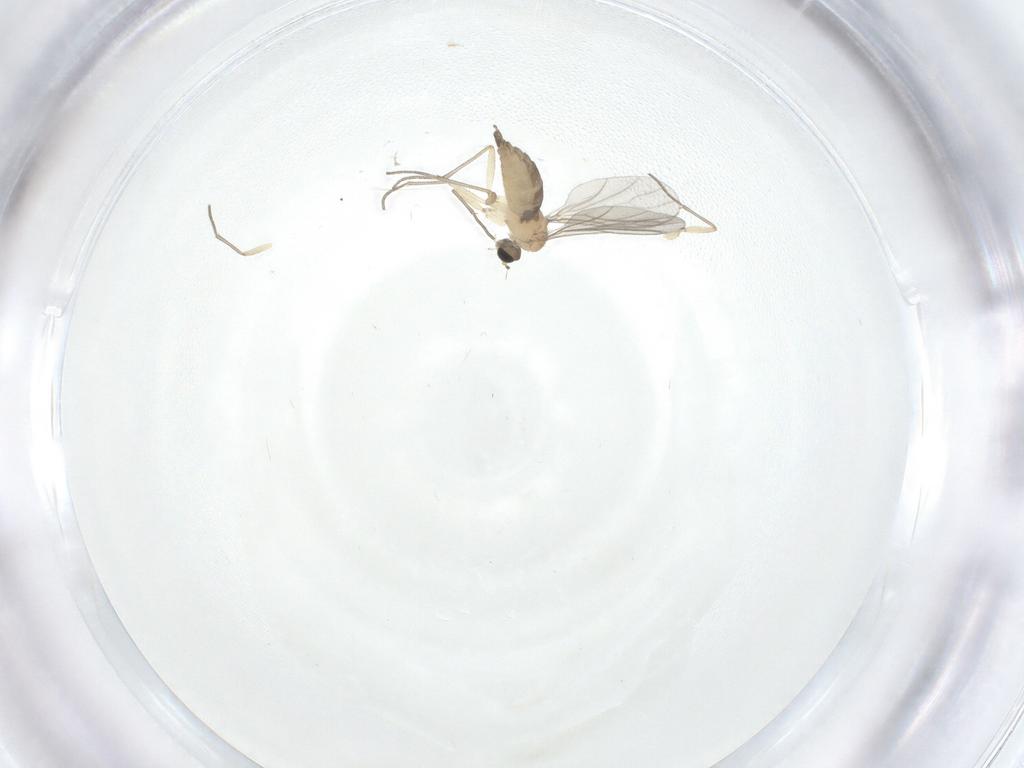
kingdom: Animalia
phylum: Arthropoda
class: Insecta
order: Diptera
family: Sciaridae
